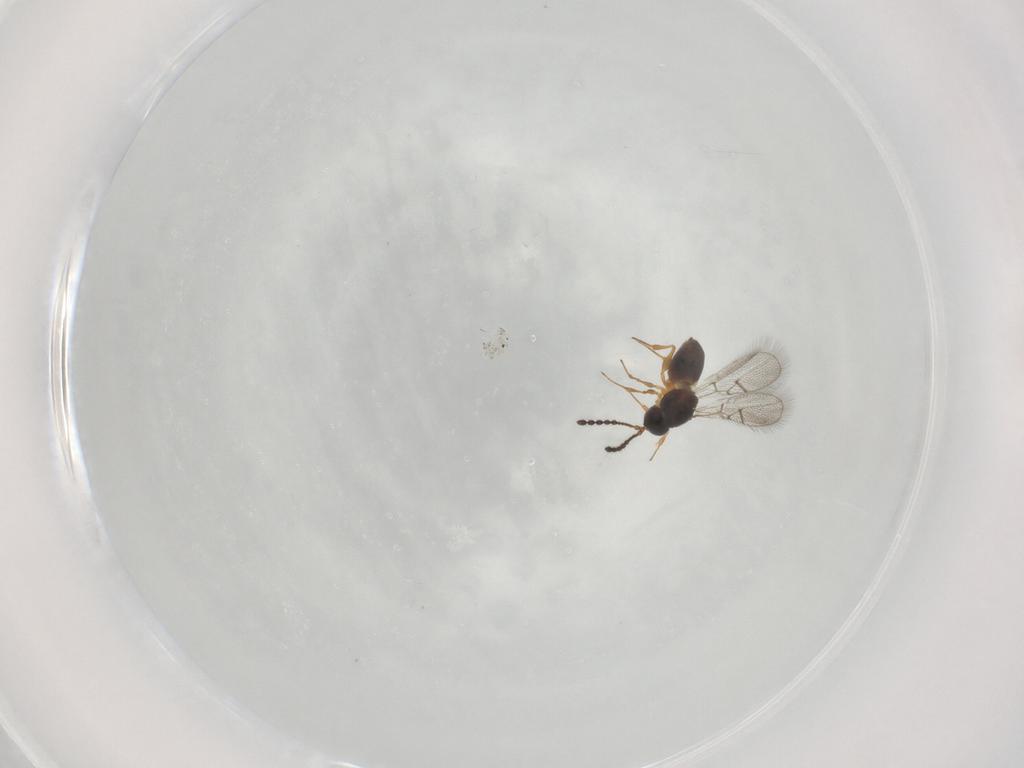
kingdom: Animalia
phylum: Arthropoda
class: Insecta
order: Hymenoptera
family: Figitidae
